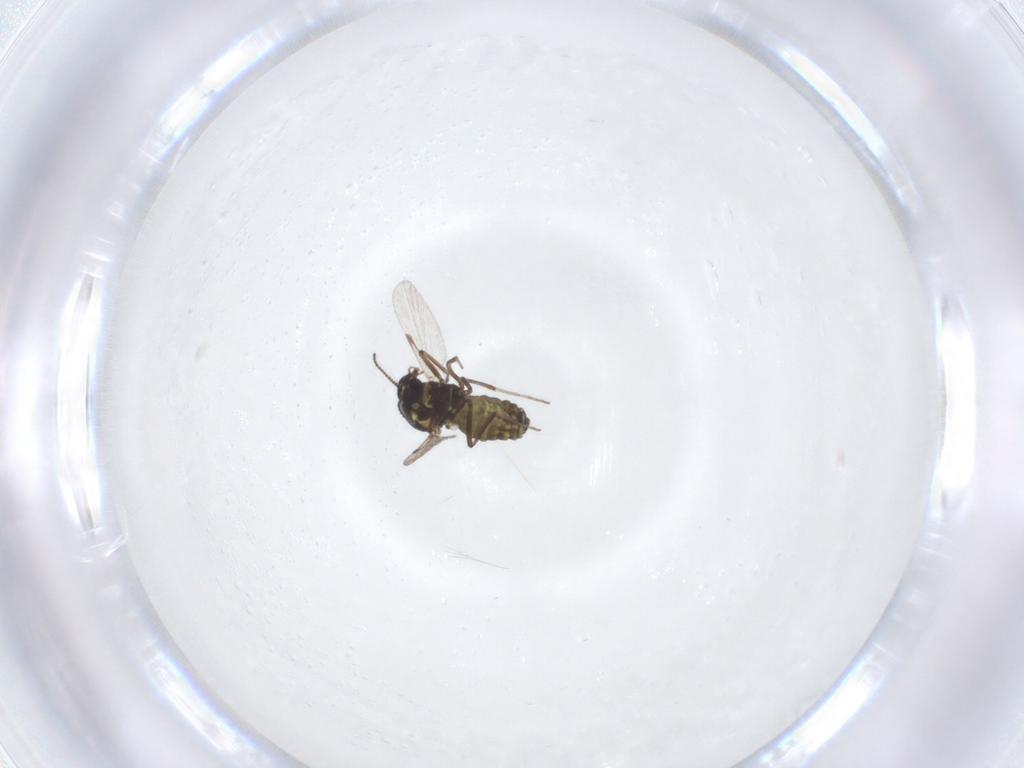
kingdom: Animalia
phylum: Arthropoda
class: Insecta
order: Diptera
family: Ceratopogonidae
